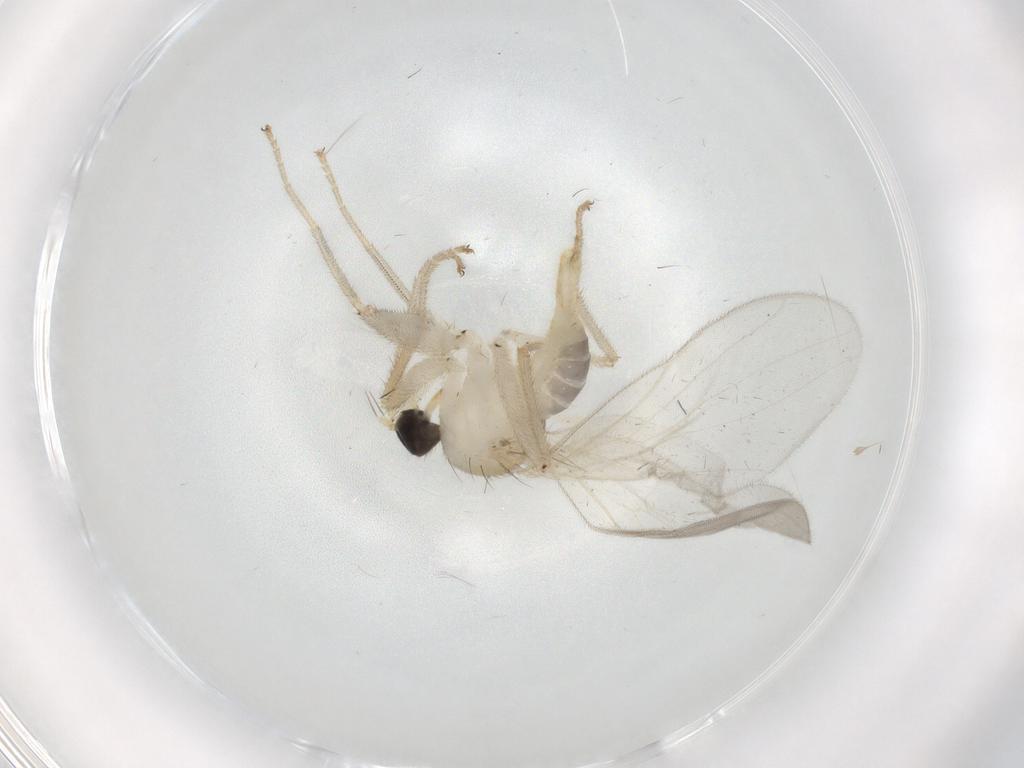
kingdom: Animalia
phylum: Arthropoda
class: Insecta
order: Diptera
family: Hybotidae
